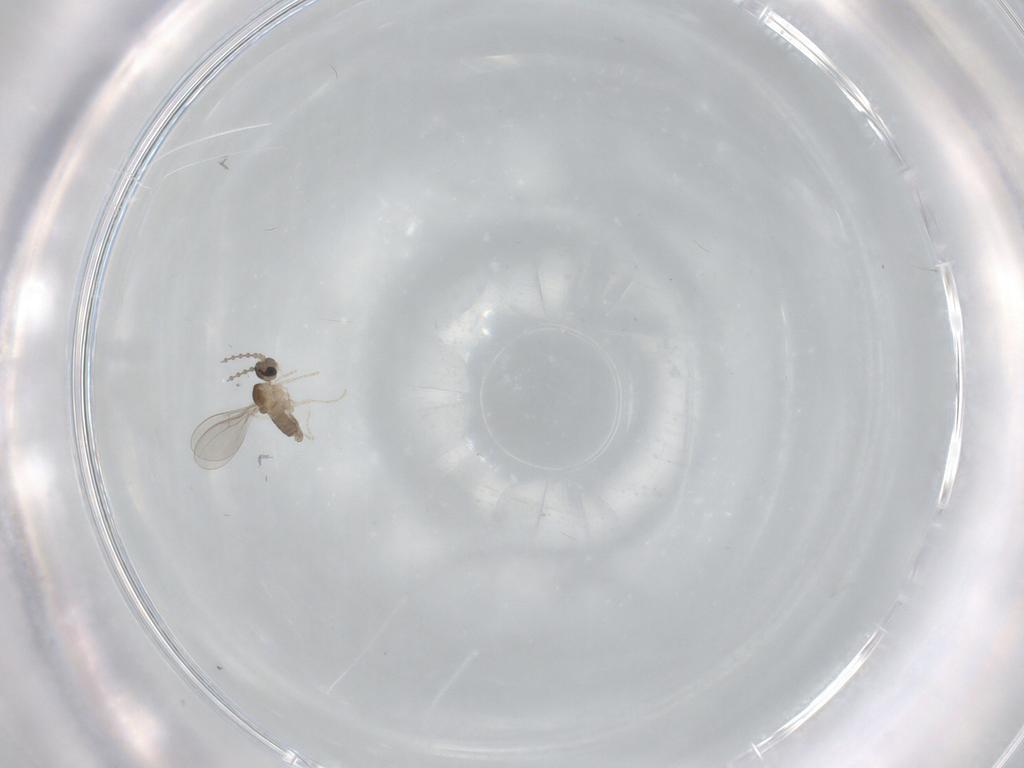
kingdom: Animalia
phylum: Arthropoda
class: Insecta
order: Diptera
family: Cecidomyiidae
